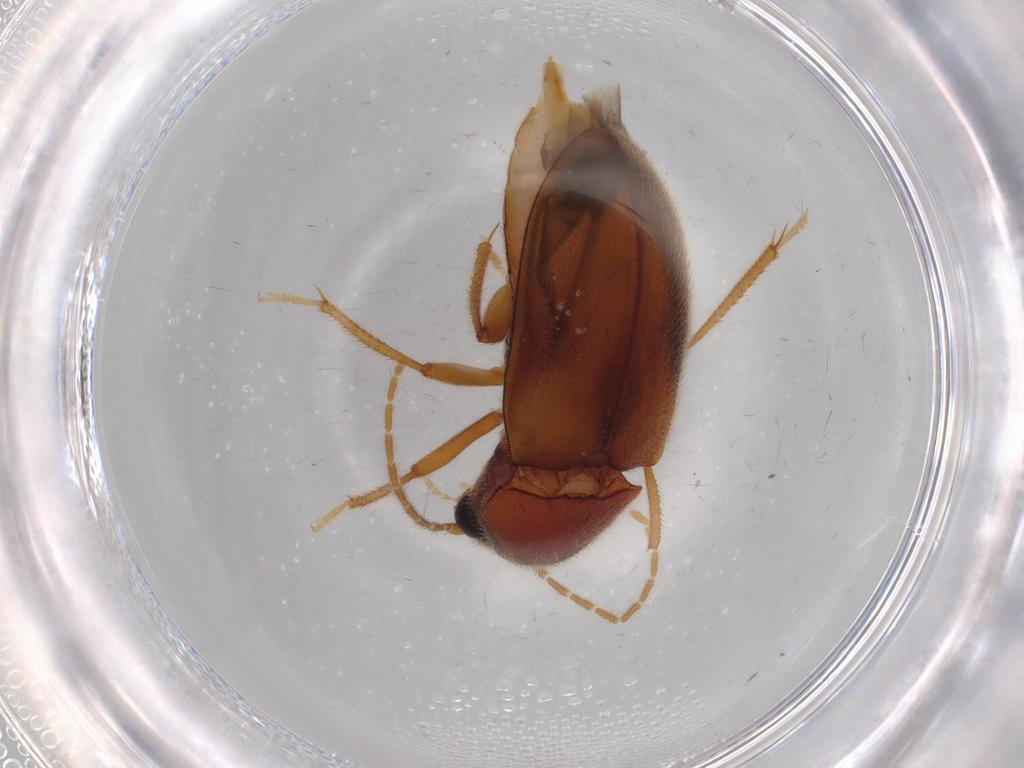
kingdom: Animalia
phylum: Arthropoda
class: Insecta
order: Coleoptera
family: Ptilodactylidae
